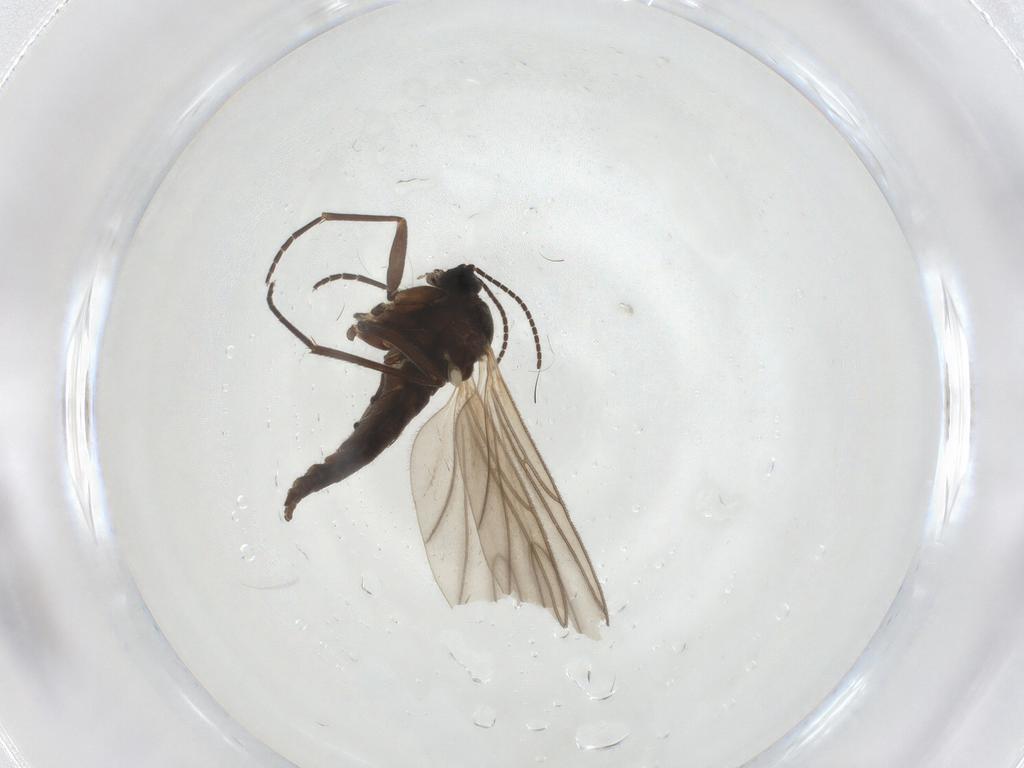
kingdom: Animalia
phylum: Arthropoda
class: Insecta
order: Diptera
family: Sciaridae
